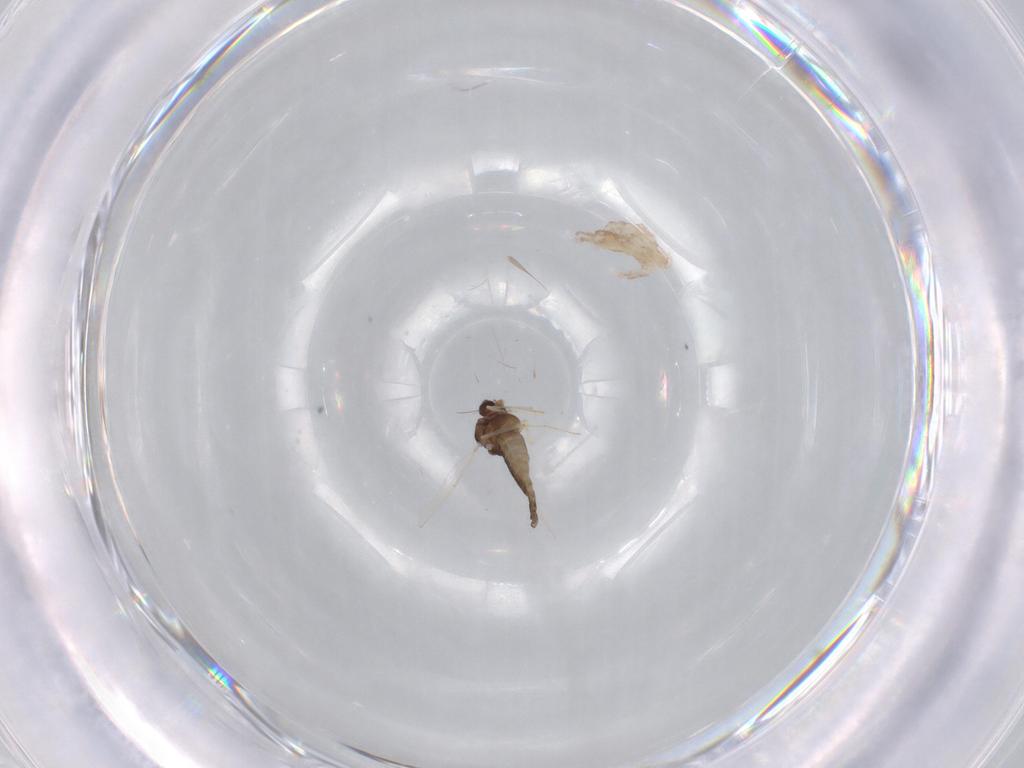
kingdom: Animalia
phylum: Arthropoda
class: Insecta
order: Diptera
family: Chironomidae
